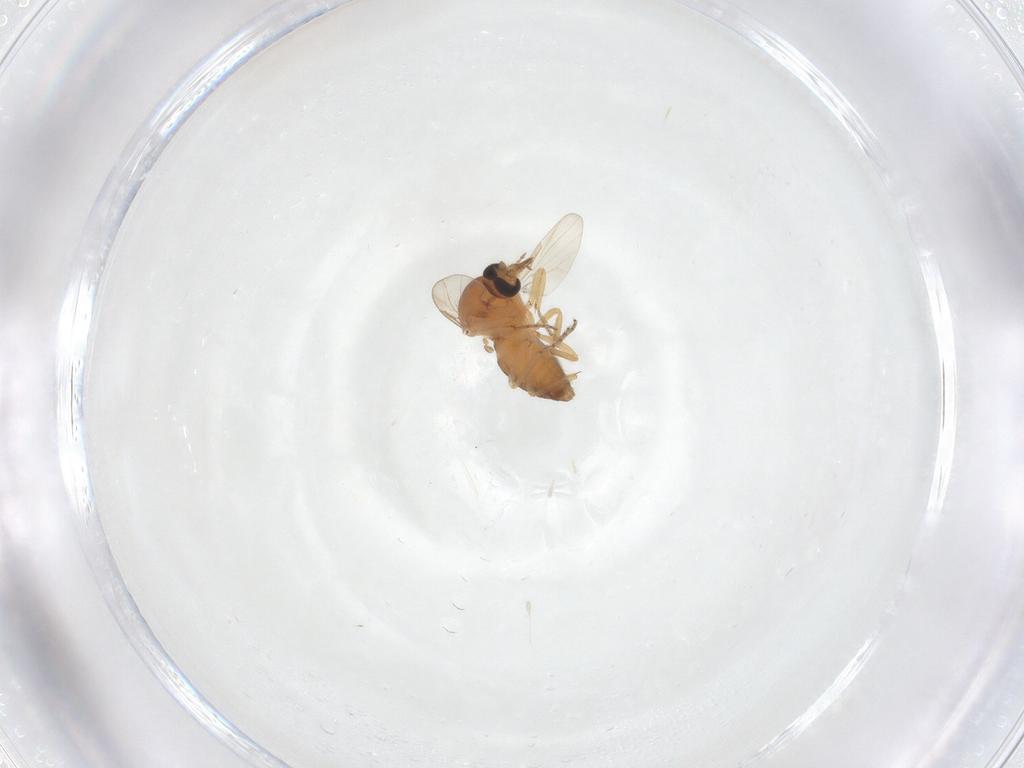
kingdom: Animalia
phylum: Arthropoda
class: Insecta
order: Diptera
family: Ceratopogonidae
